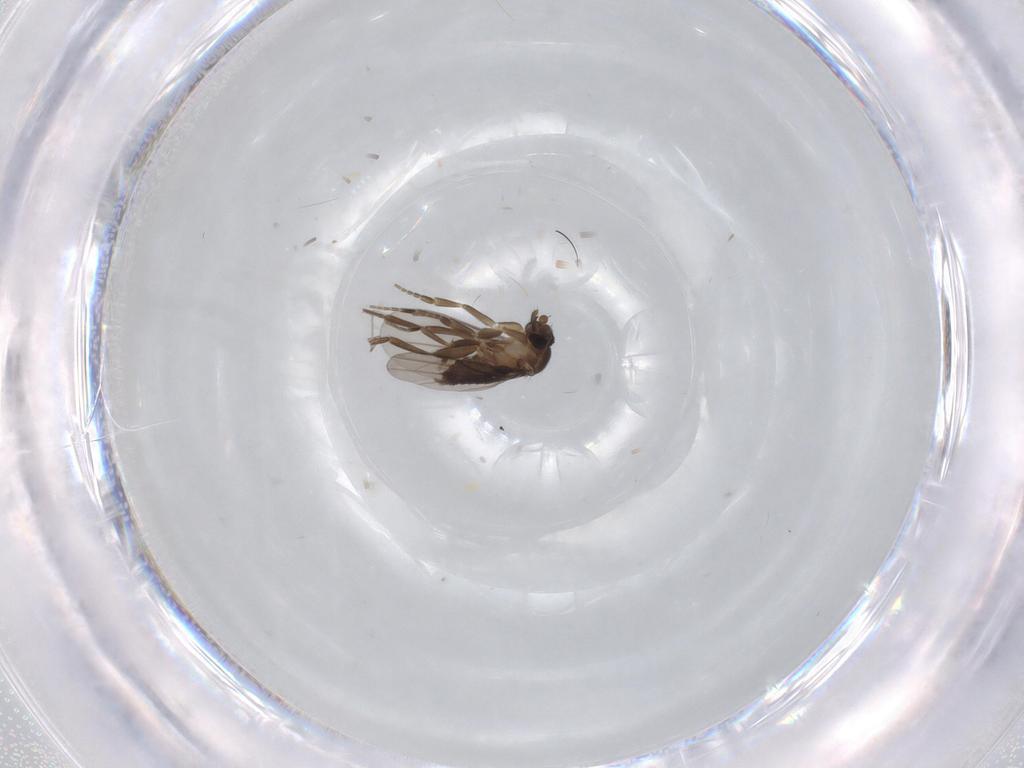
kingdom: Animalia
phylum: Arthropoda
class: Insecta
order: Diptera
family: Phoridae
